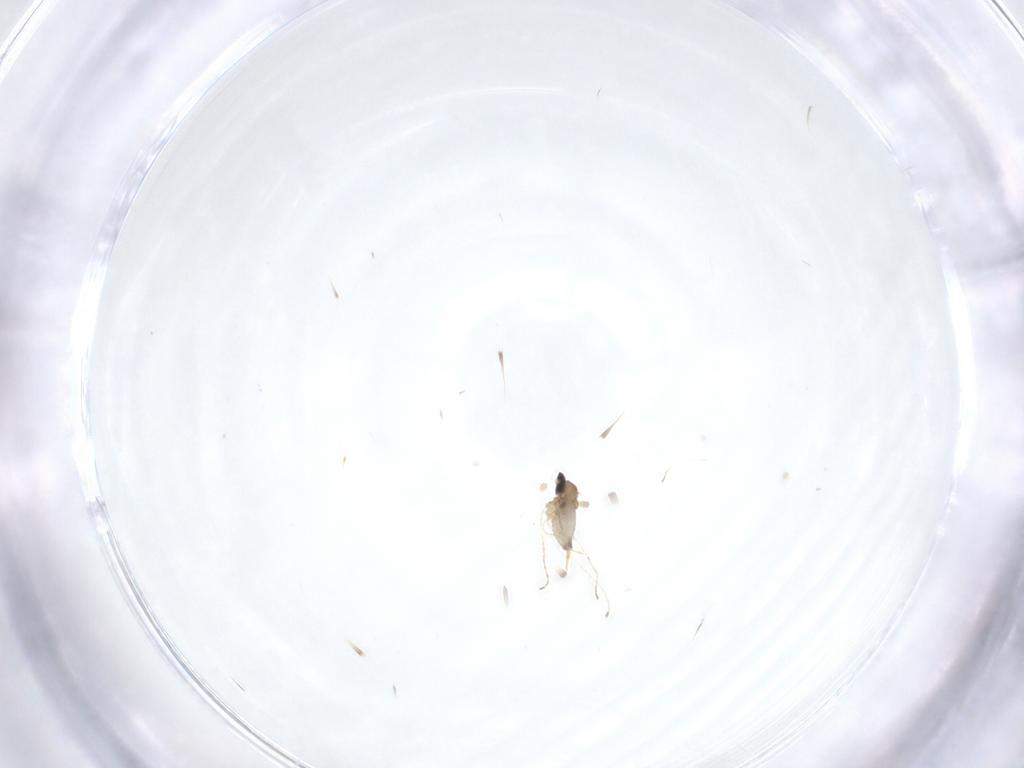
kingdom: Animalia
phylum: Arthropoda
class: Insecta
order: Diptera
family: Cecidomyiidae
